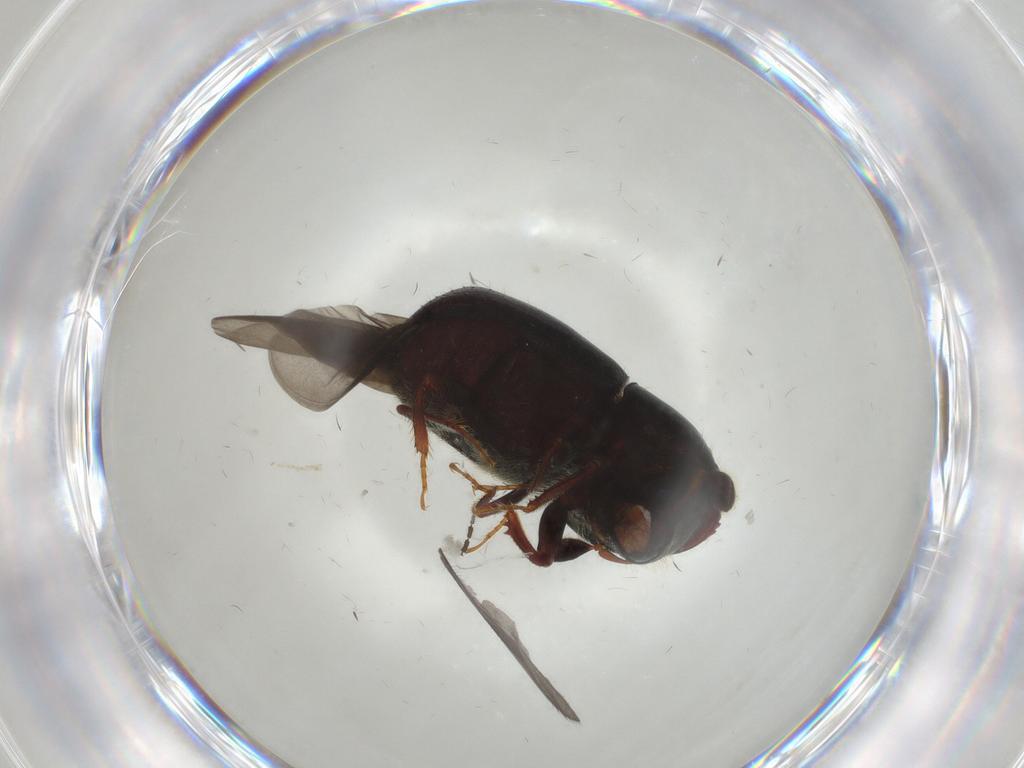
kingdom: Animalia
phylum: Arthropoda
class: Insecta
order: Coleoptera
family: Curculionidae
